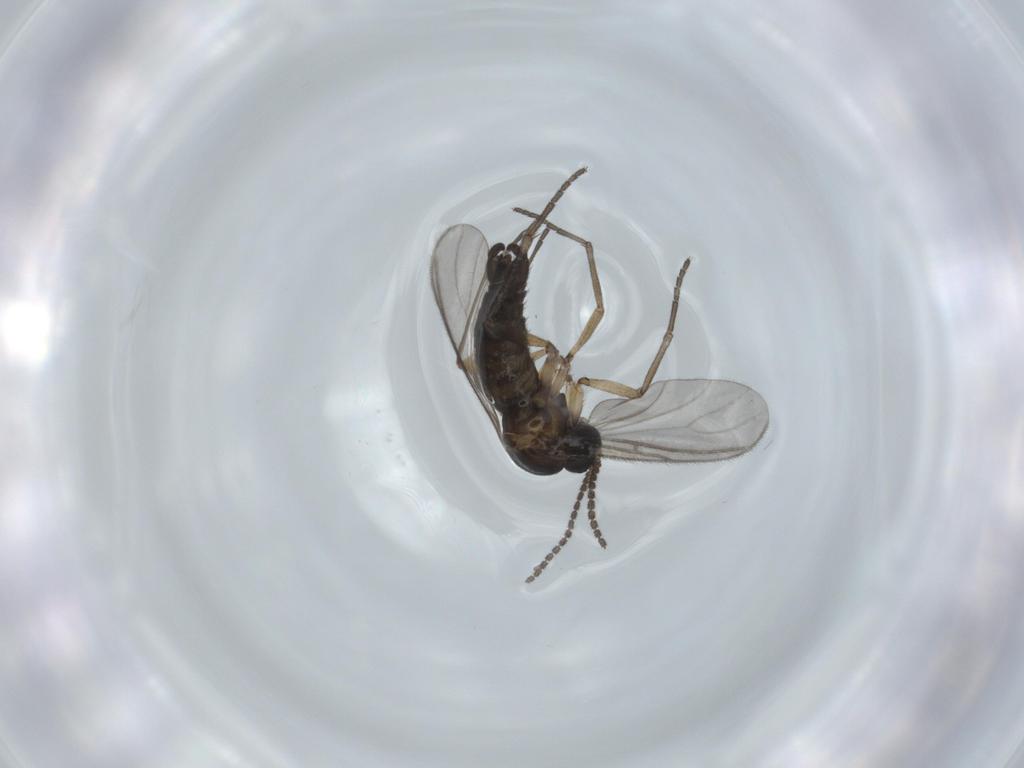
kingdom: Animalia
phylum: Arthropoda
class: Insecta
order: Diptera
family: Sciaridae
